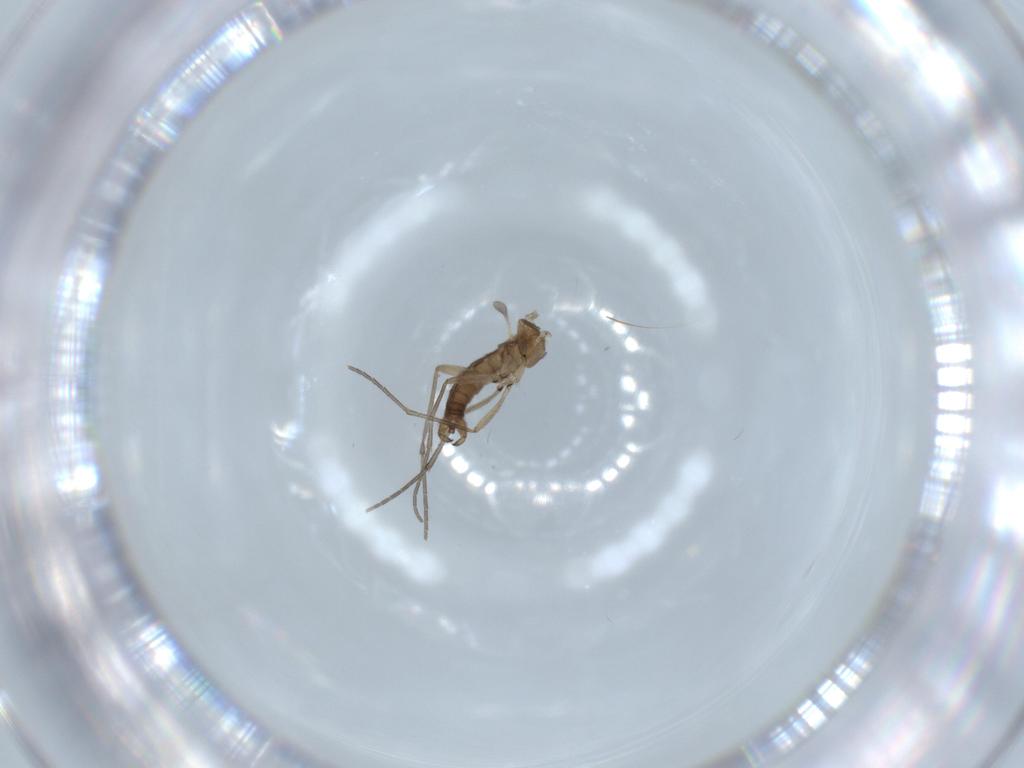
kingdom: Animalia
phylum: Arthropoda
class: Insecta
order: Diptera
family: Sciaridae
